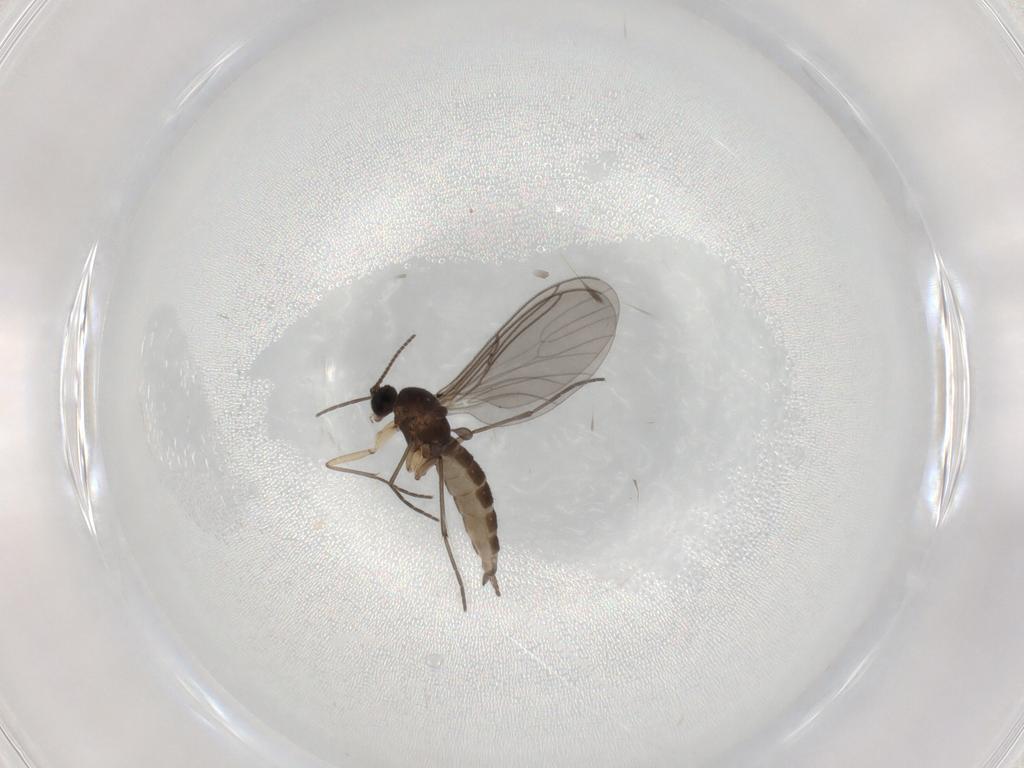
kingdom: Animalia
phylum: Arthropoda
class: Insecta
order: Diptera
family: Sciaridae
